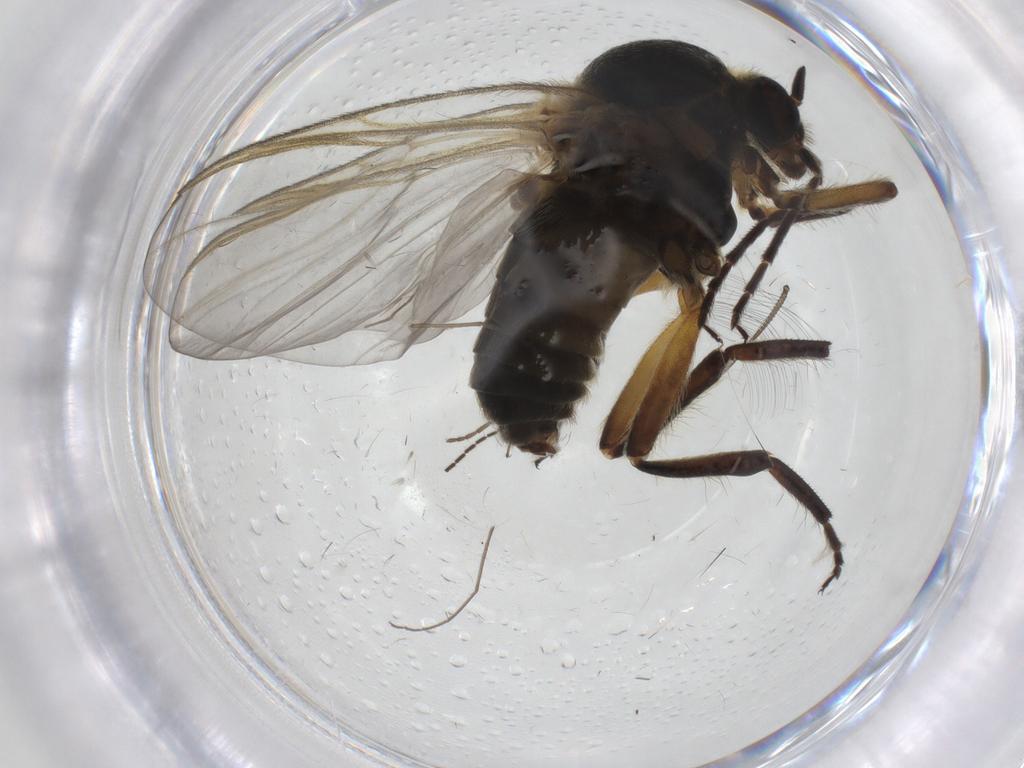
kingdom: Animalia
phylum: Arthropoda
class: Insecta
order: Diptera
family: Simuliidae
